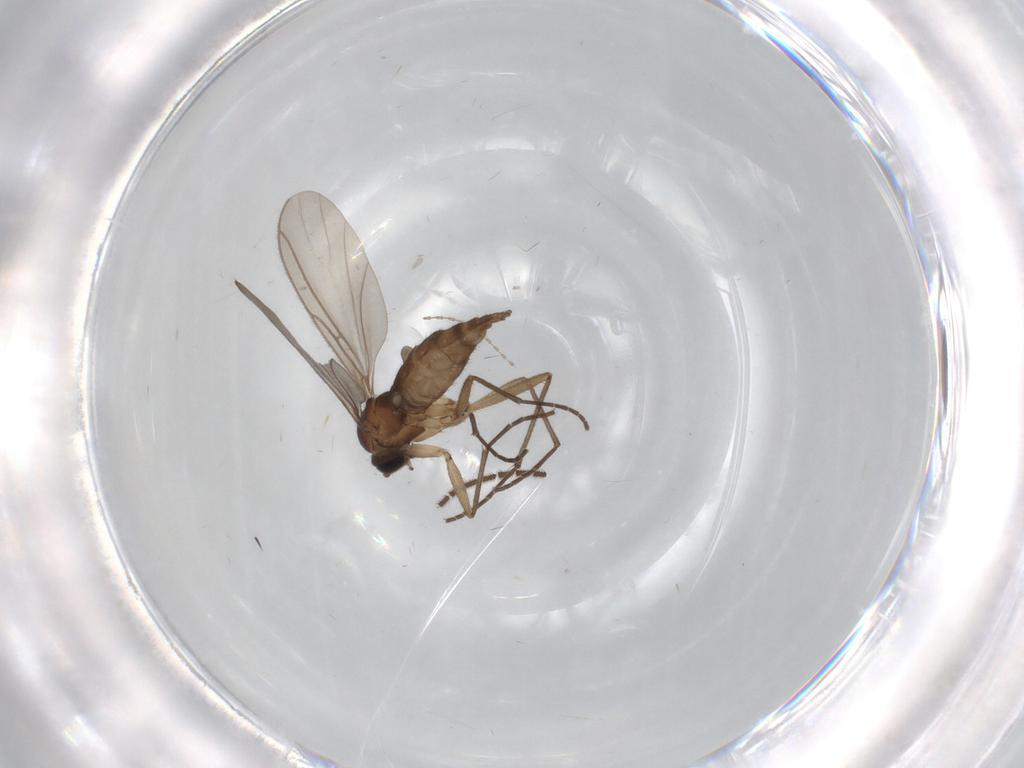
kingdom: Animalia
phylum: Arthropoda
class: Insecta
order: Diptera
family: Sciaridae
